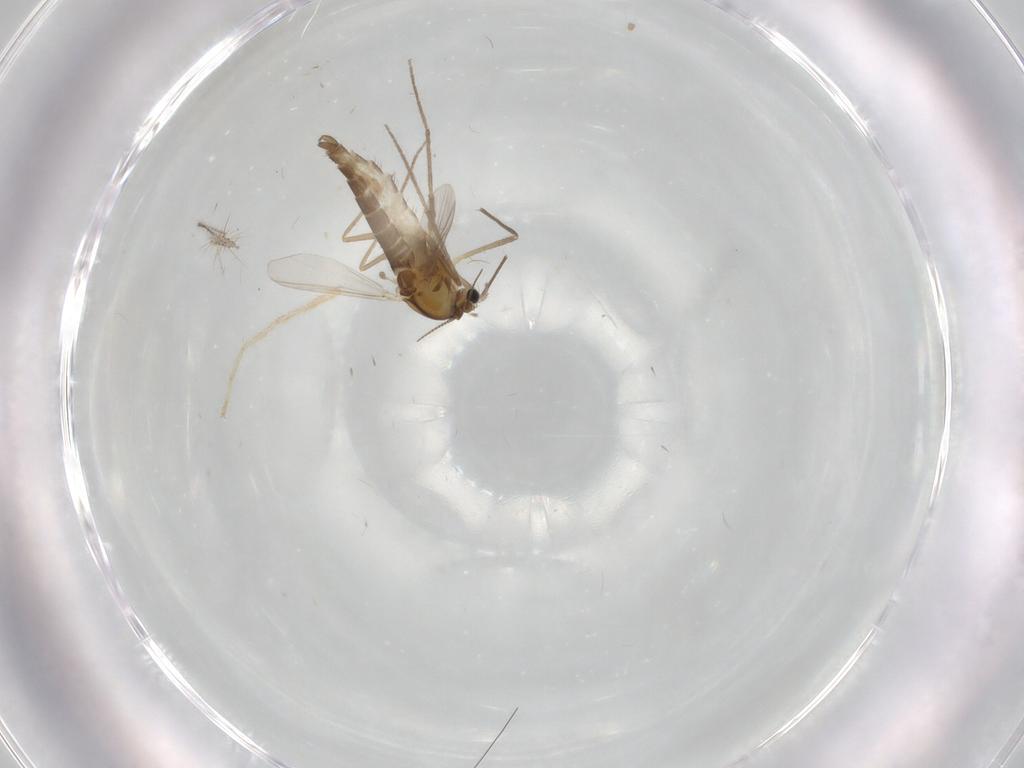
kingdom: Animalia
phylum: Arthropoda
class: Insecta
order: Diptera
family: Chironomidae
